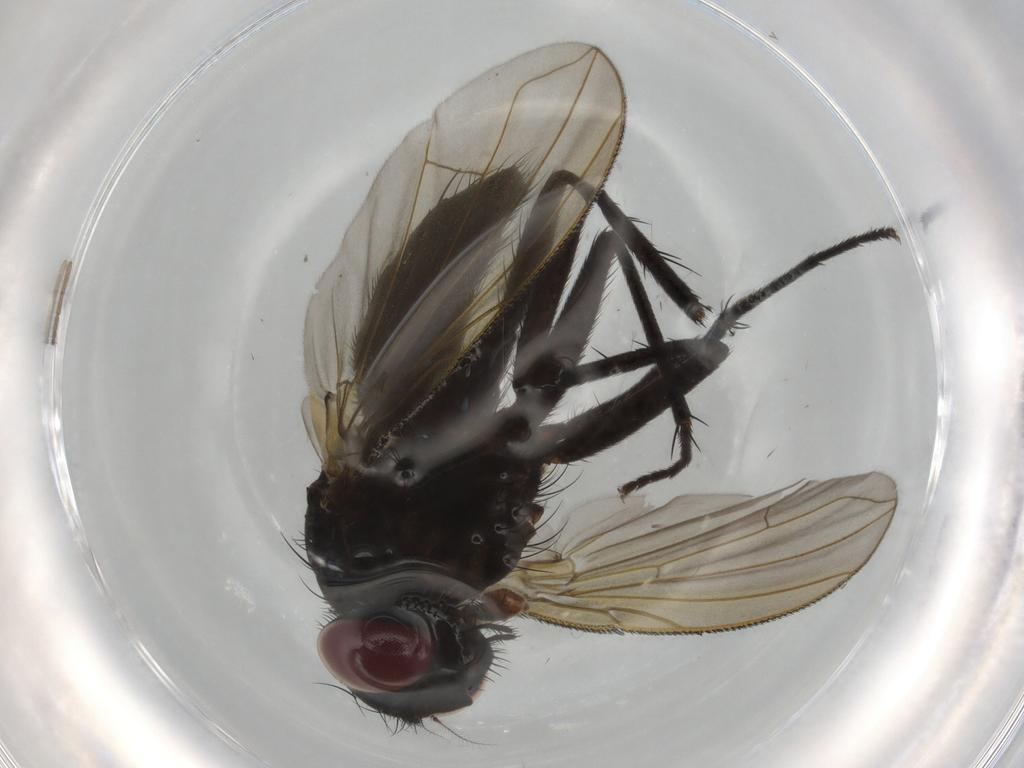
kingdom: Animalia
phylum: Arthropoda
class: Insecta
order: Diptera
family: Tachinidae
